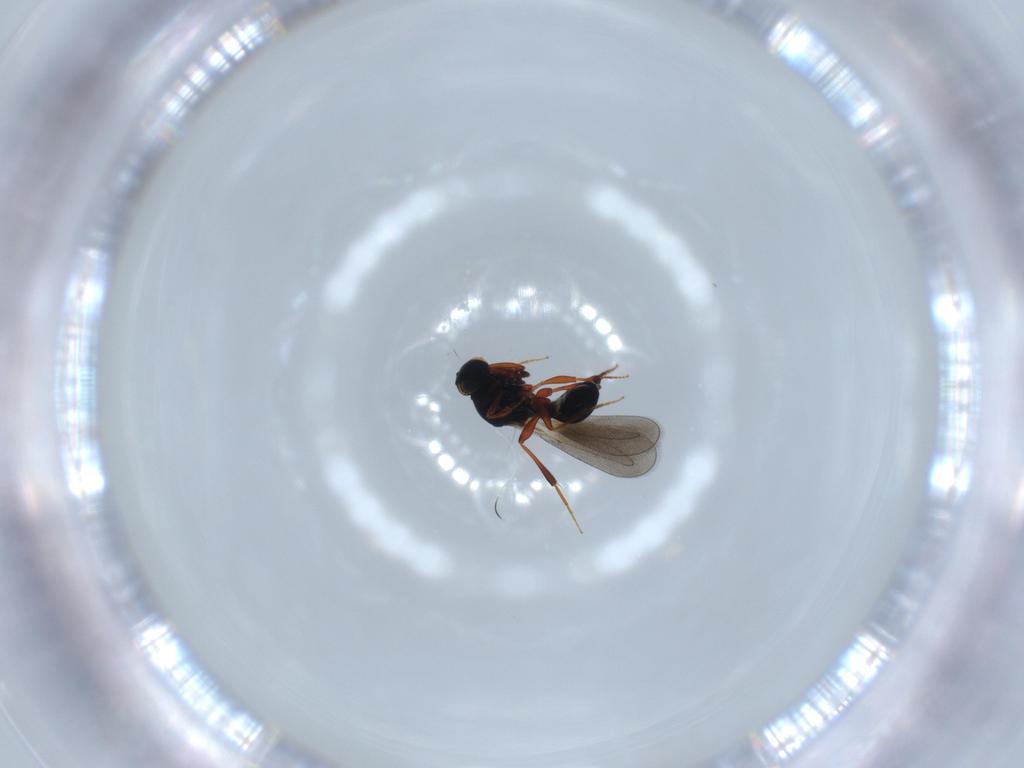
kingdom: Animalia
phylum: Arthropoda
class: Insecta
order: Hymenoptera
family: Platygastridae
